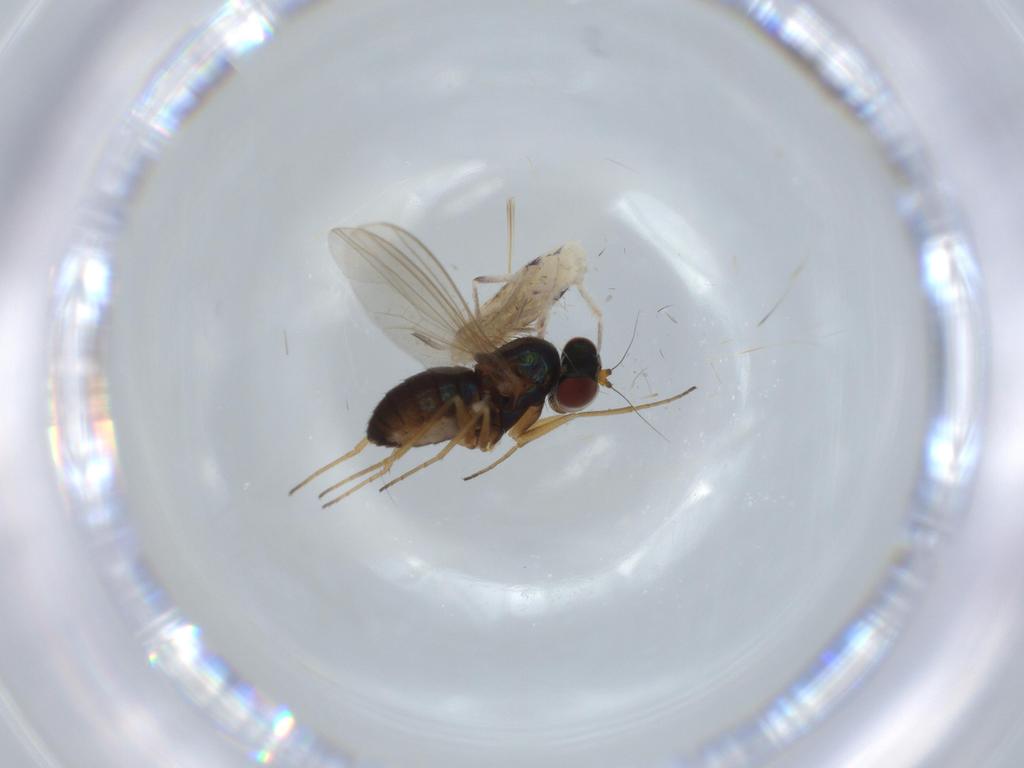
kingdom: Animalia
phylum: Arthropoda
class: Collembola
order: Entomobryomorpha
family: Entomobryidae
